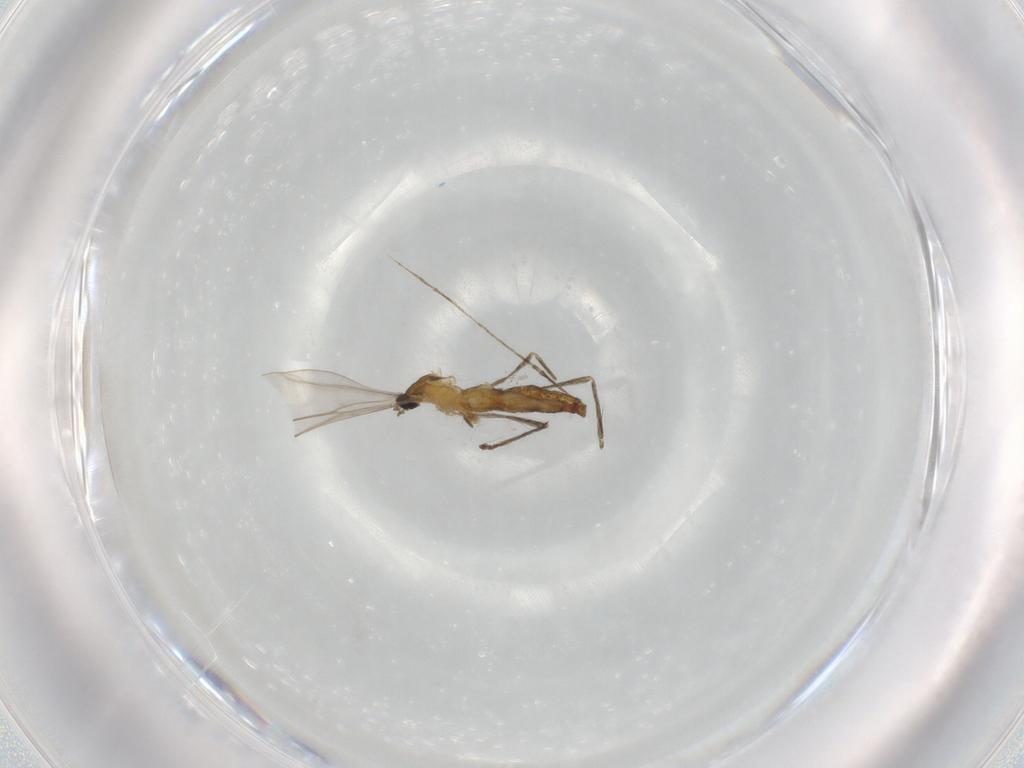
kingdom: Animalia
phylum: Arthropoda
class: Insecta
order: Diptera
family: Cecidomyiidae
